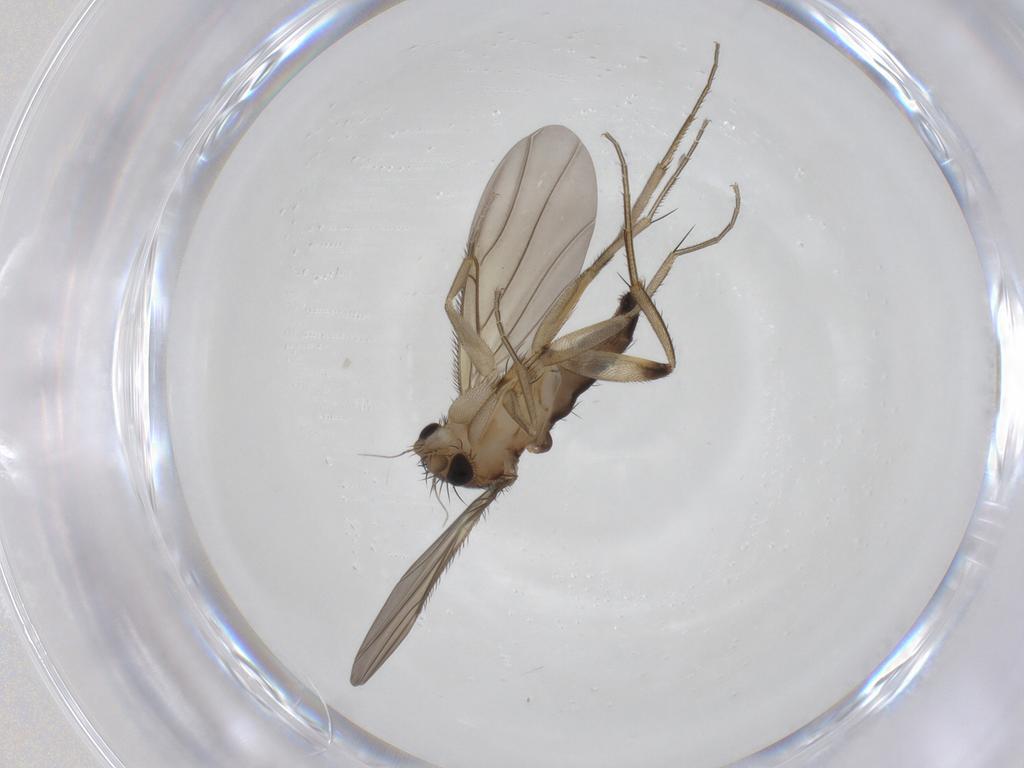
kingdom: Animalia
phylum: Arthropoda
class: Insecta
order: Diptera
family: Phoridae
